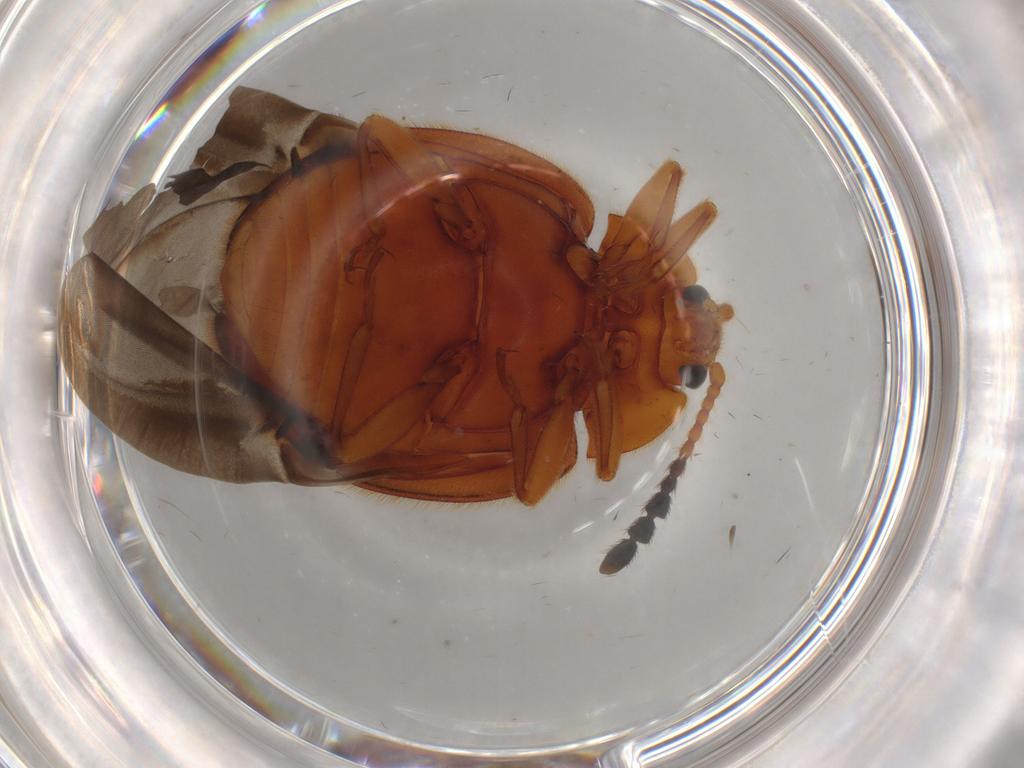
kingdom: Animalia
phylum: Arthropoda
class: Insecta
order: Coleoptera
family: Endomychidae
